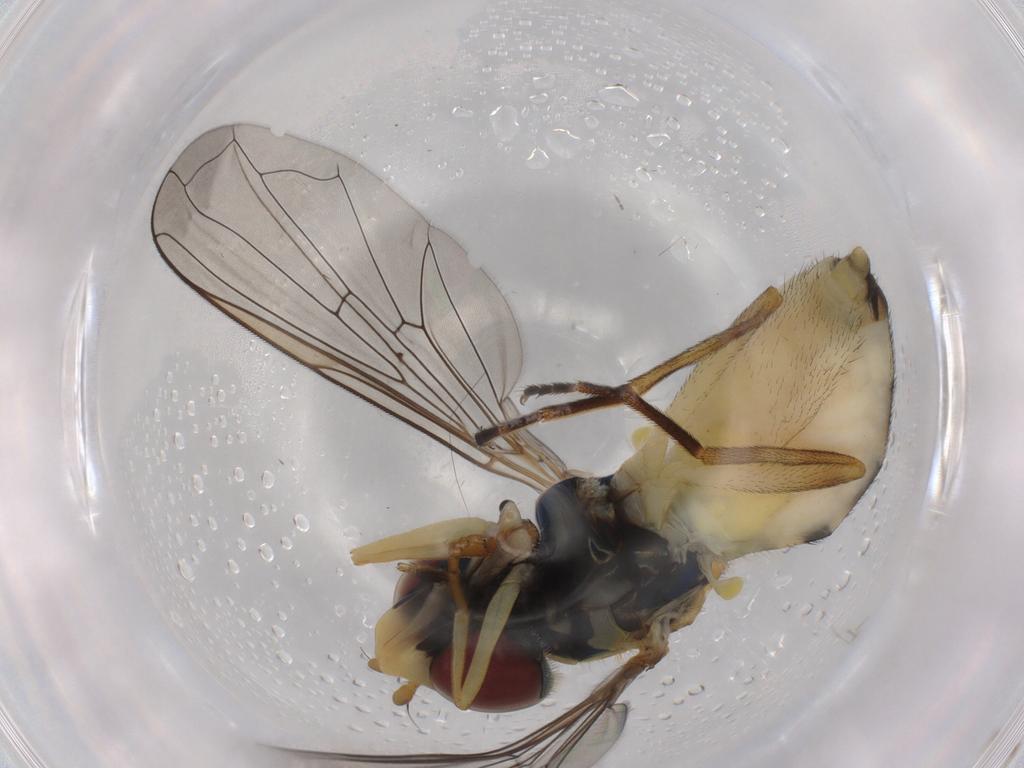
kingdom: Animalia
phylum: Arthropoda
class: Insecta
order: Diptera
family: Syrphidae
